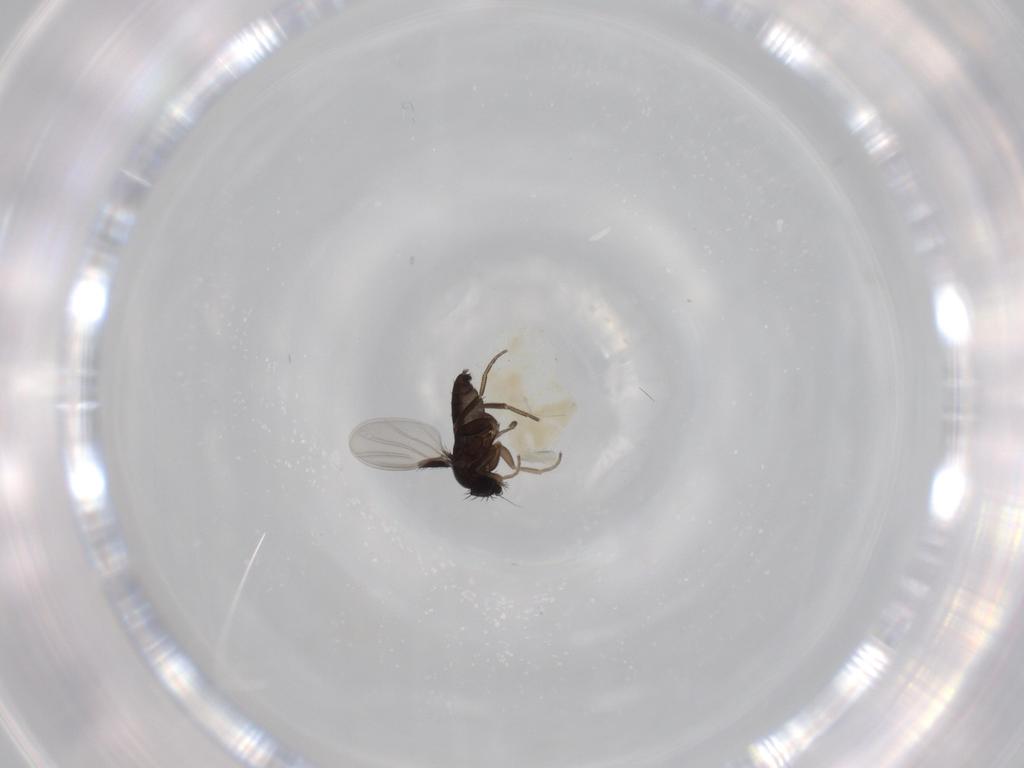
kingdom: Animalia
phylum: Arthropoda
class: Insecta
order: Diptera
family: Phoridae
